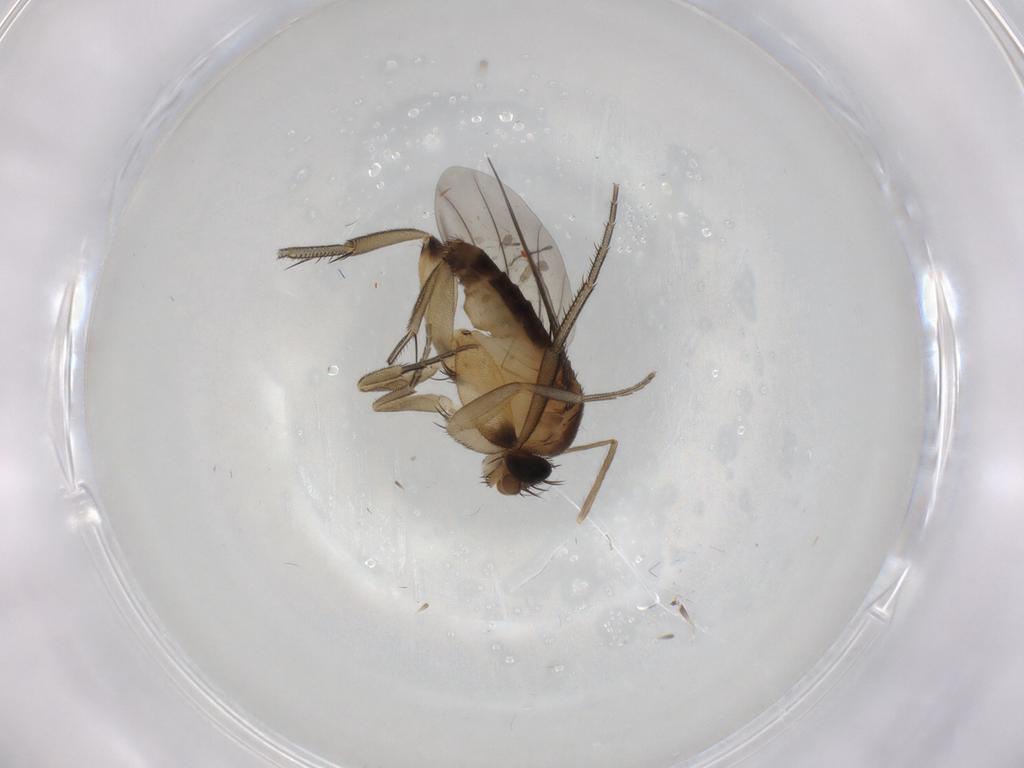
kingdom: Animalia
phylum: Arthropoda
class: Insecta
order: Diptera
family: Phoridae
